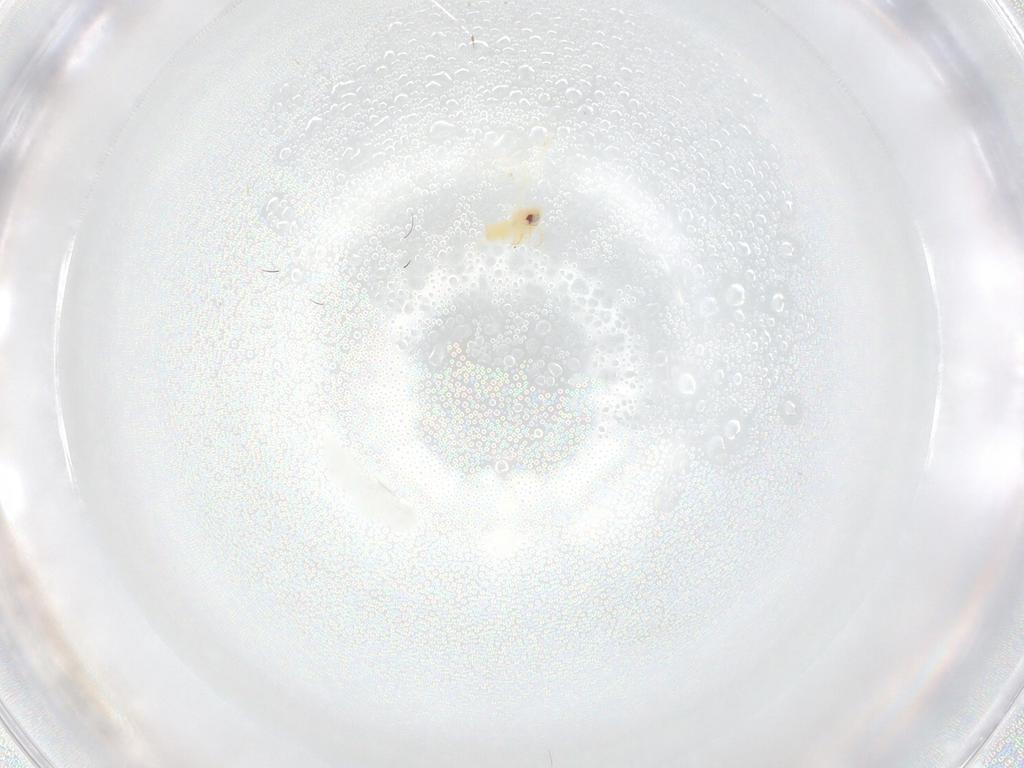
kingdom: Animalia
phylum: Arthropoda
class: Insecta
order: Hemiptera
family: Aleyrodidae
